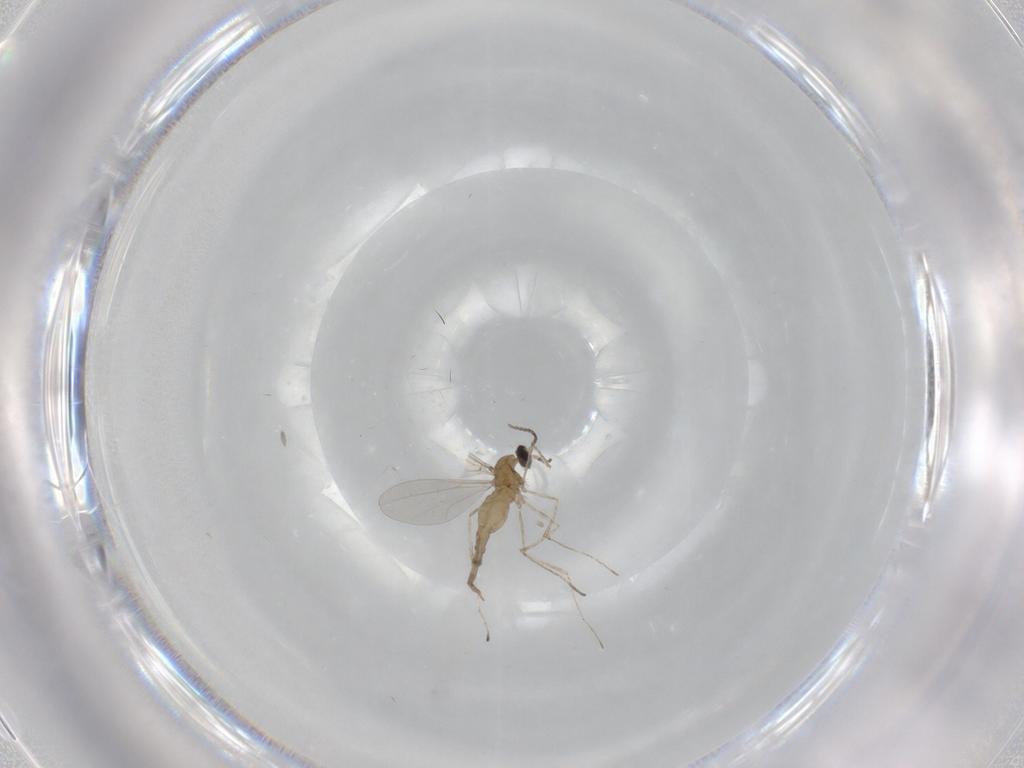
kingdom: Animalia
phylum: Arthropoda
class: Insecta
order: Diptera
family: Cecidomyiidae
